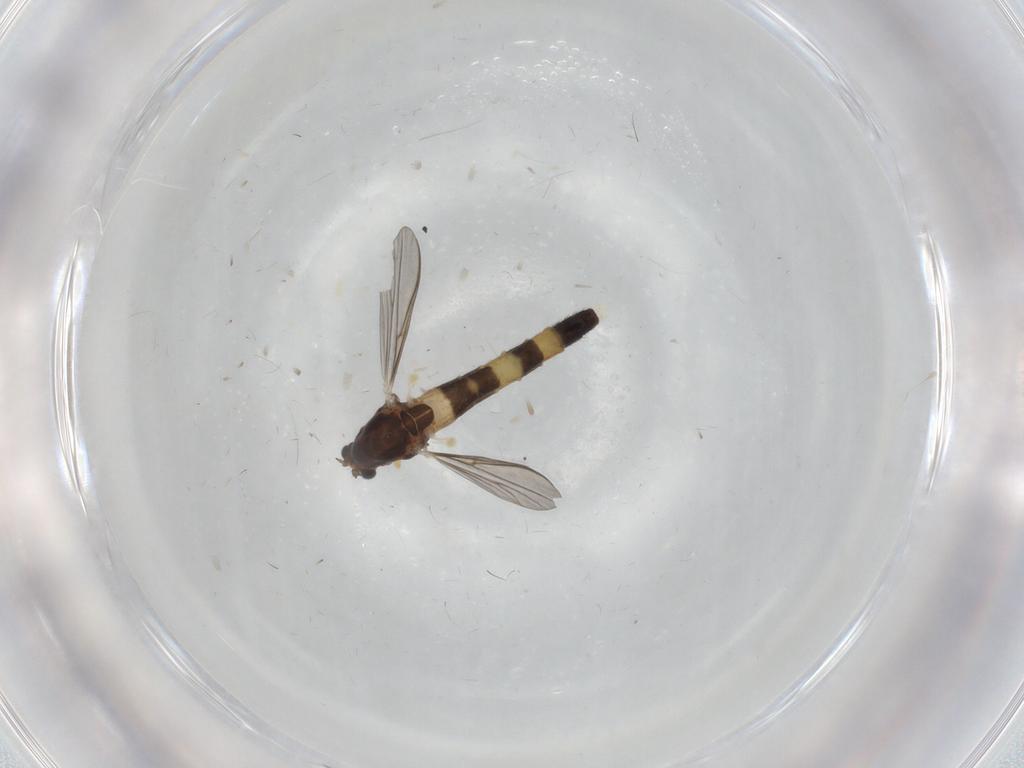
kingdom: Animalia
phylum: Arthropoda
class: Insecta
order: Diptera
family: Chironomidae
